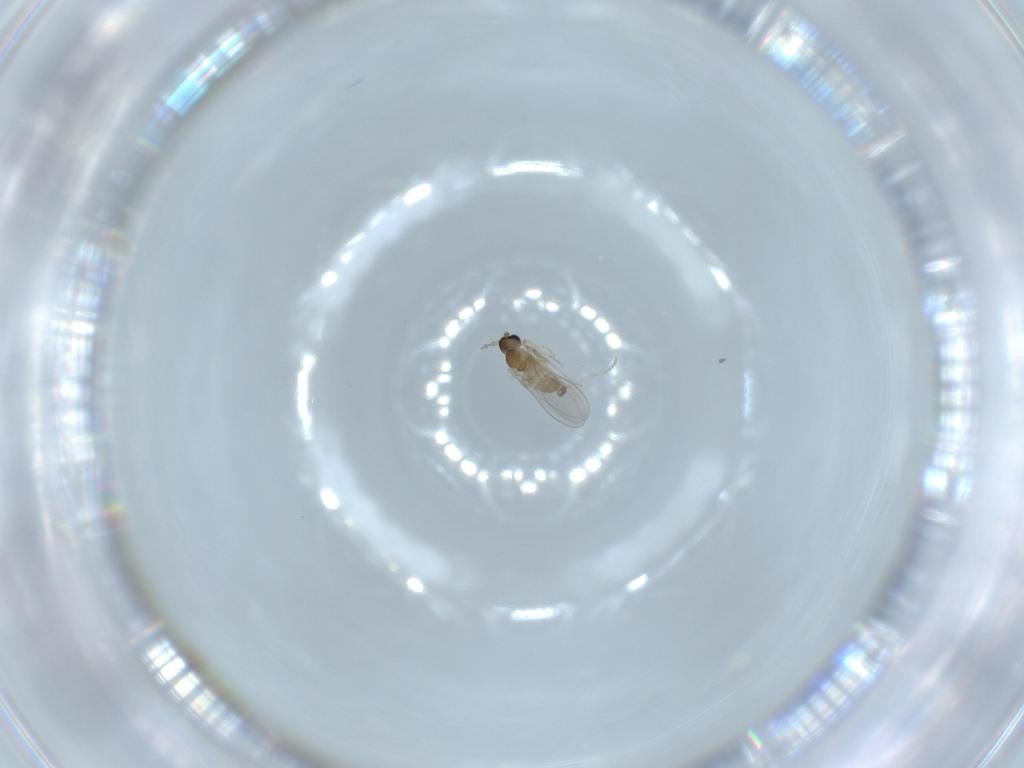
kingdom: Animalia
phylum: Arthropoda
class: Insecta
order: Diptera
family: Cecidomyiidae
